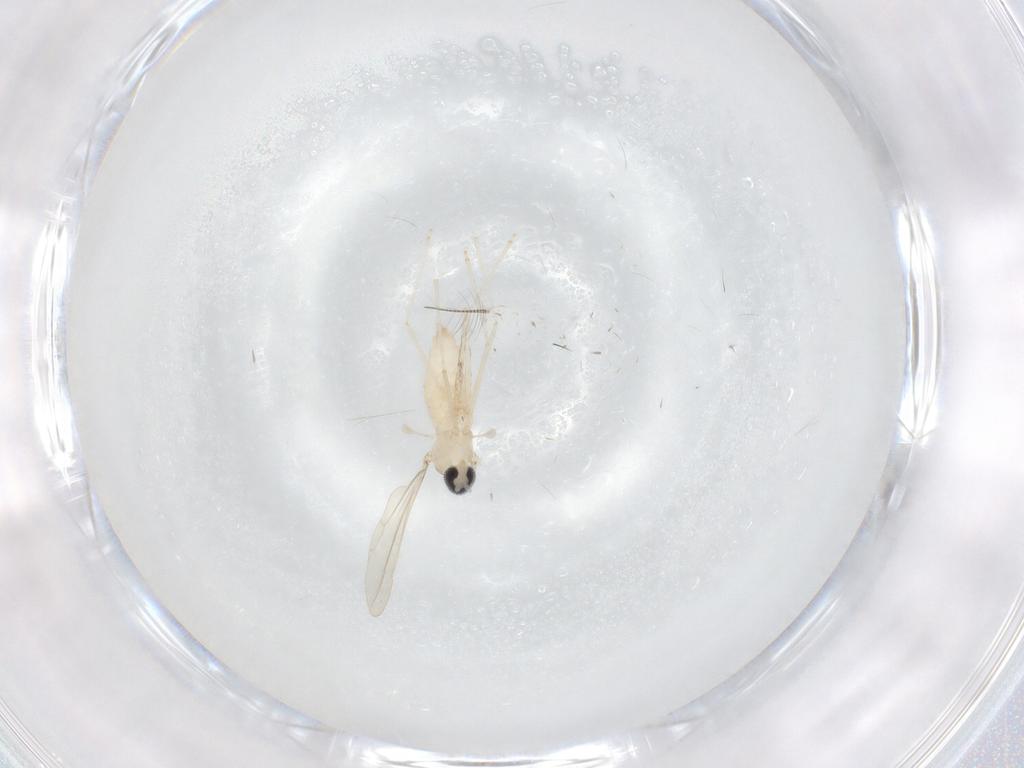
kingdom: Animalia
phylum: Arthropoda
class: Insecta
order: Diptera
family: Chironomidae
